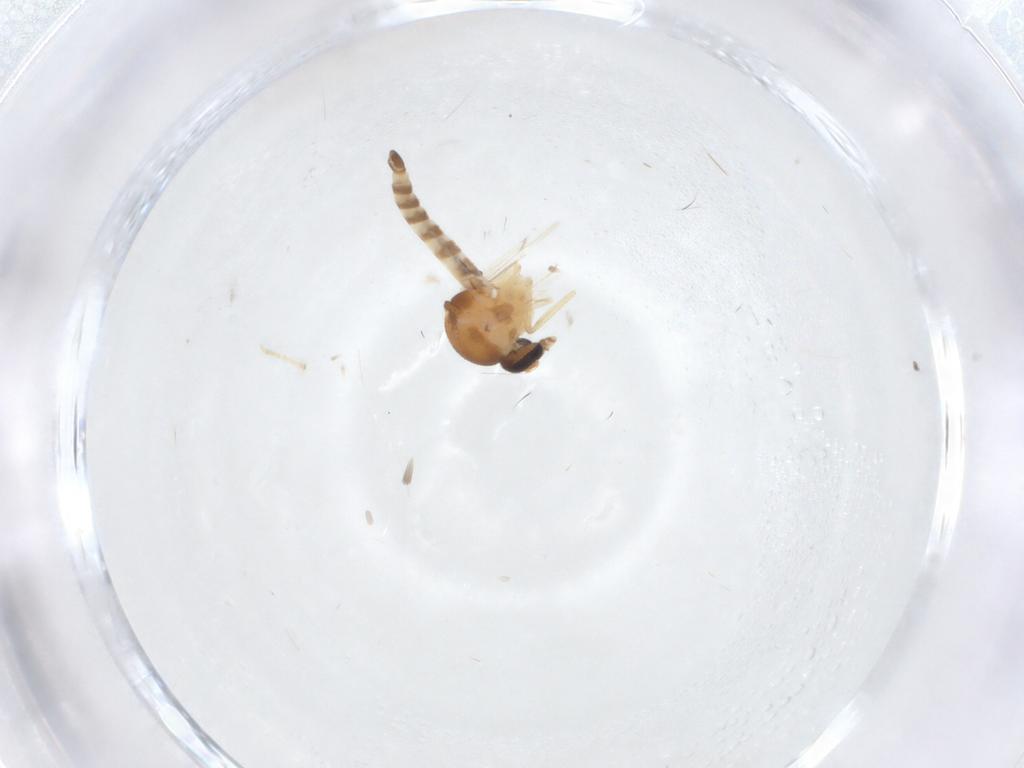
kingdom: Animalia
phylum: Arthropoda
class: Insecta
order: Diptera
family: Ceratopogonidae
